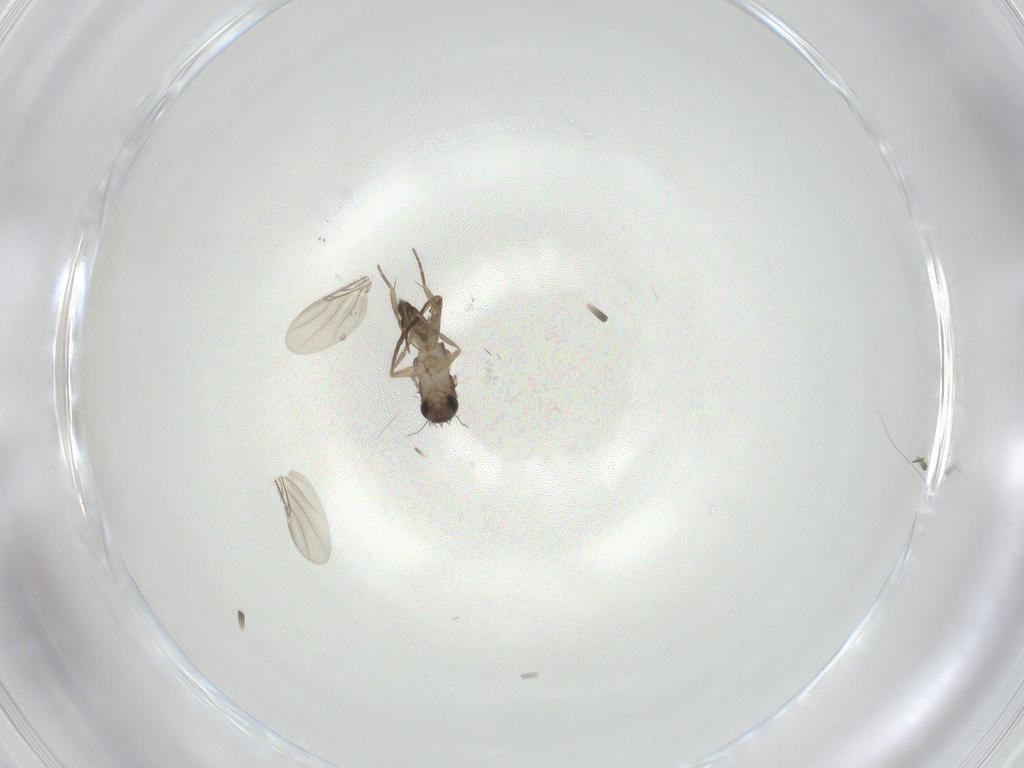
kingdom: Animalia
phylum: Arthropoda
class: Insecta
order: Diptera
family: Phoridae
